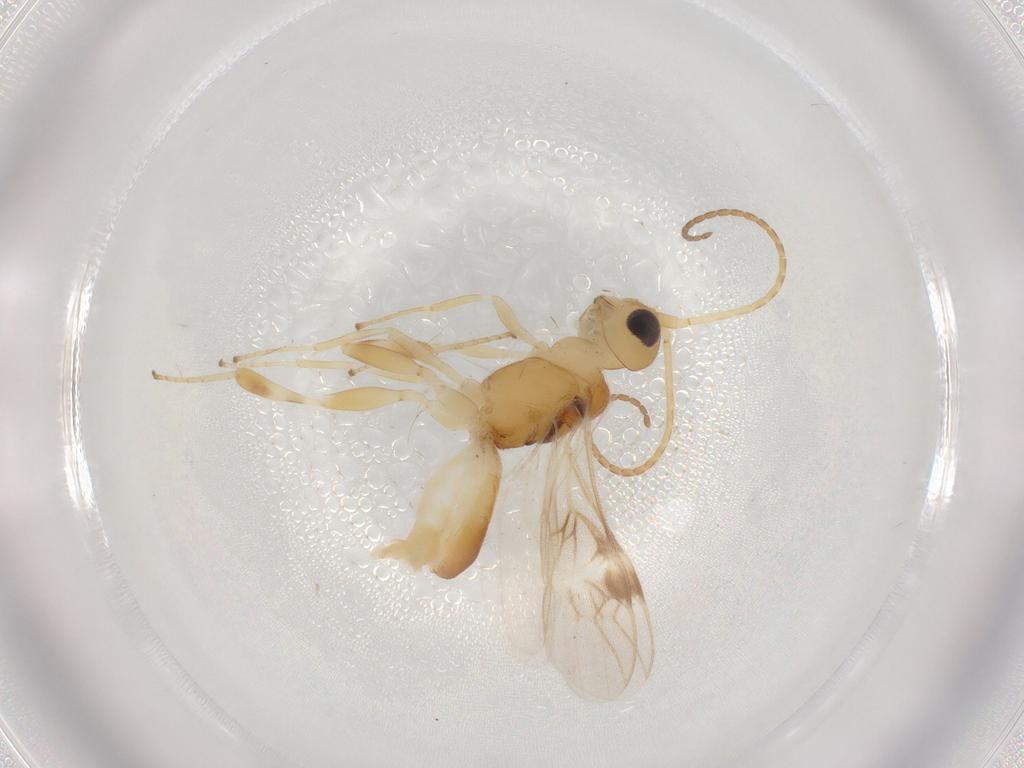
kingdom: Animalia
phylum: Arthropoda
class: Insecta
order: Hymenoptera
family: Braconidae
